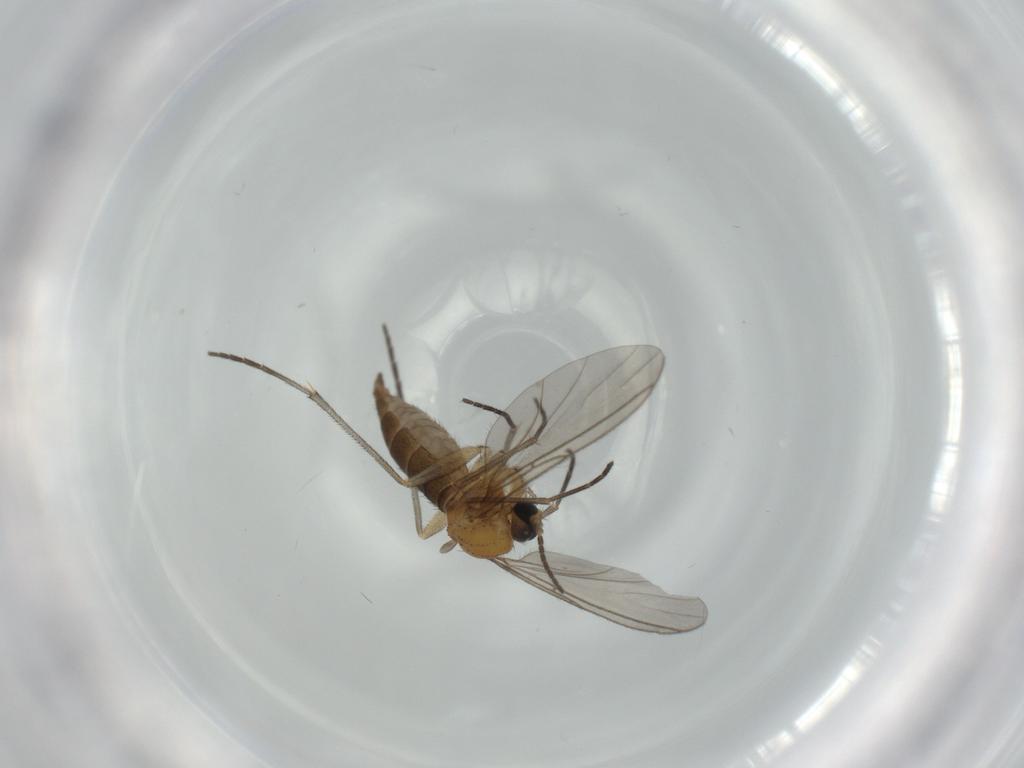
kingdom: Animalia
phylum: Arthropoda
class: Insecta
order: Diptera
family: Sciaridae
